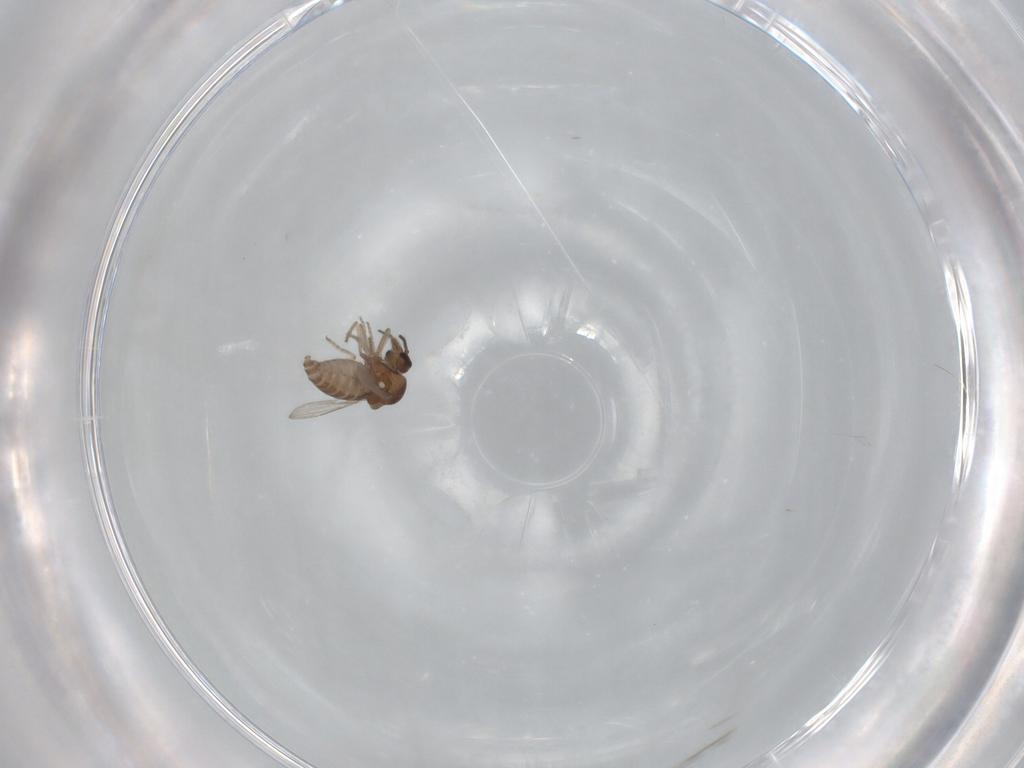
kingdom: Animalia
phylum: Arthropoda
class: Insecta
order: Diptera
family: Ceratopogonidae
